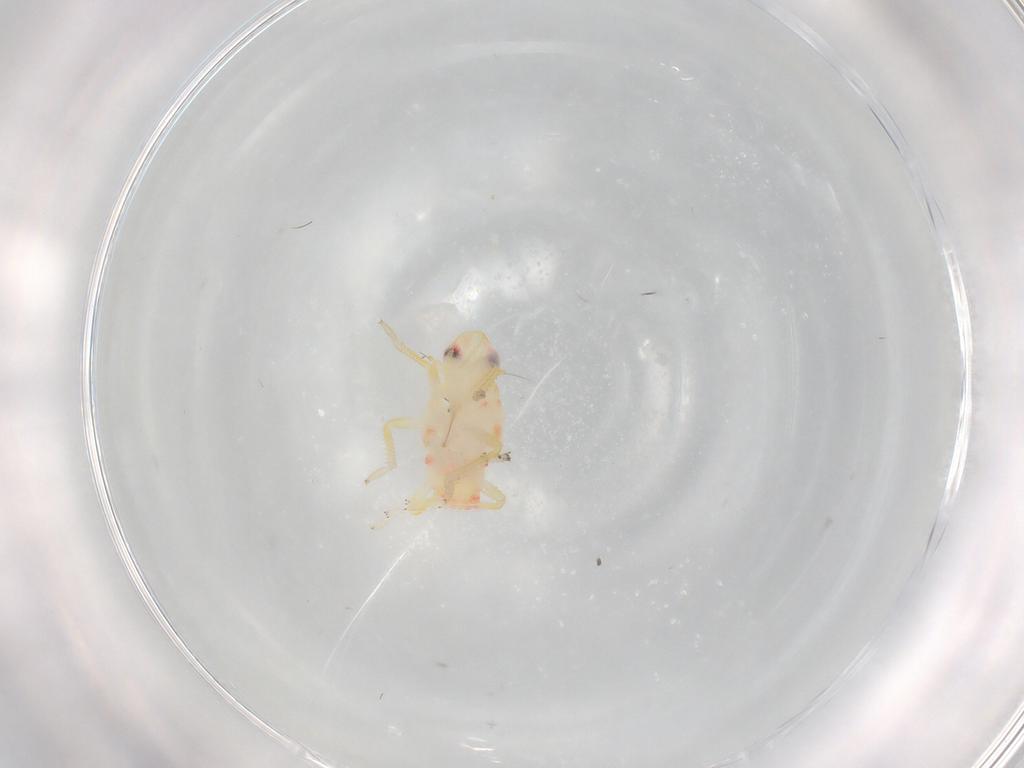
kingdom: Animalia
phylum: Arthropoda
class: Insecta
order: Hemiptera
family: Tropiduchidae
